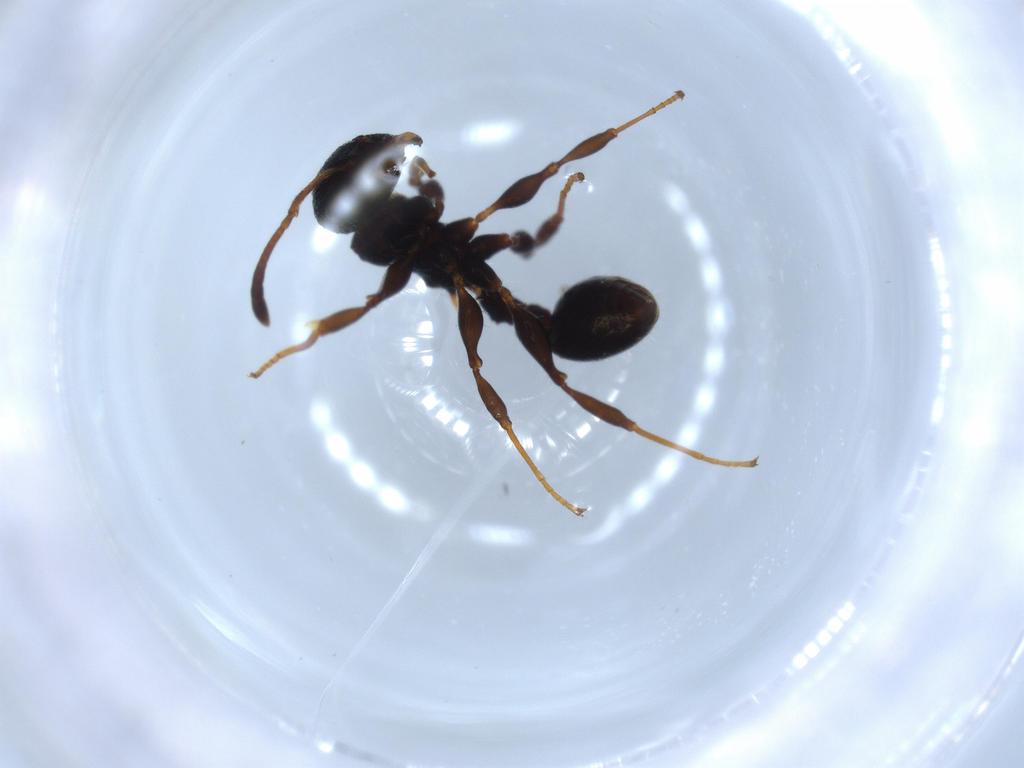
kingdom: Animalia
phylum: Arthropoda
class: Insecta
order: Hymenoptera
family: Formicidae
